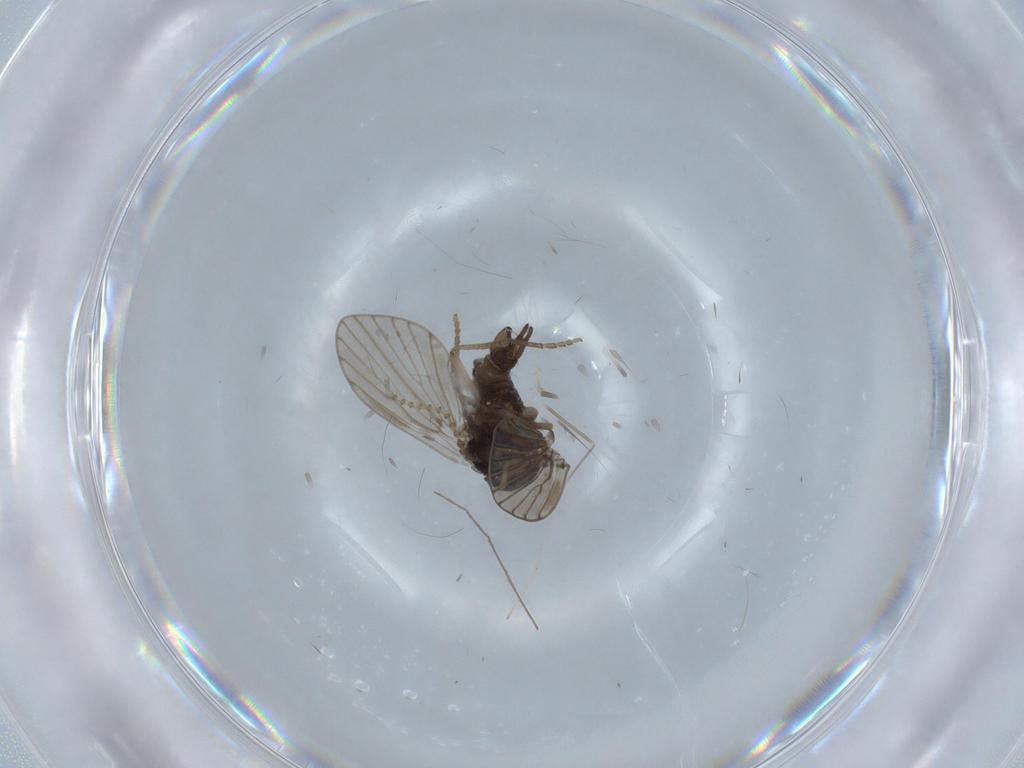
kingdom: Animalia
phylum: Arthropoda
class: Insecta
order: Diptera
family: Psychodidae
